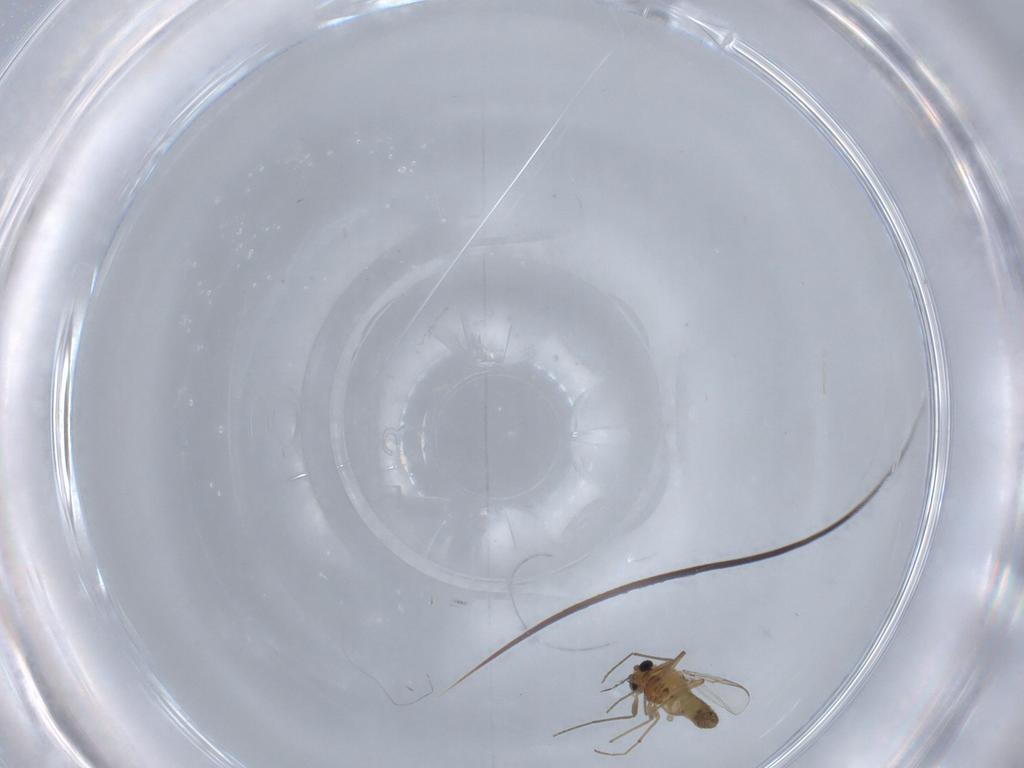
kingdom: Animalia
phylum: Arthropoda
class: Insecta
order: Diptera
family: Chironomidae
